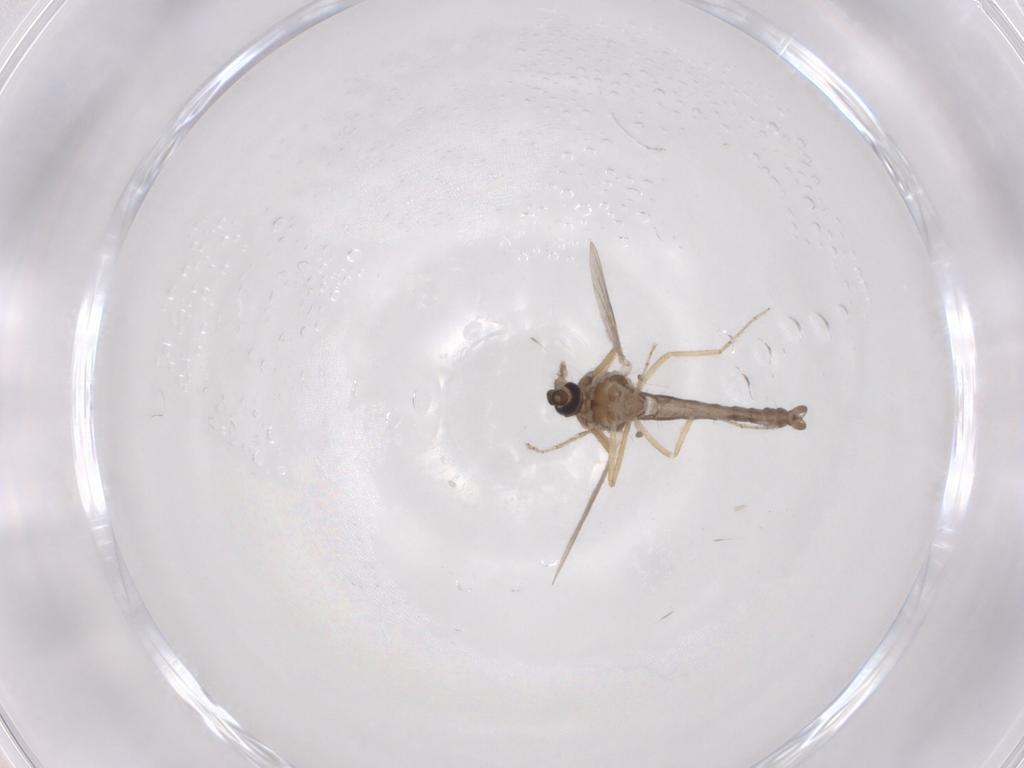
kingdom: Animalia
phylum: Arthropoda
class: Insecta
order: Diptera
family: Ceratopogonidae
